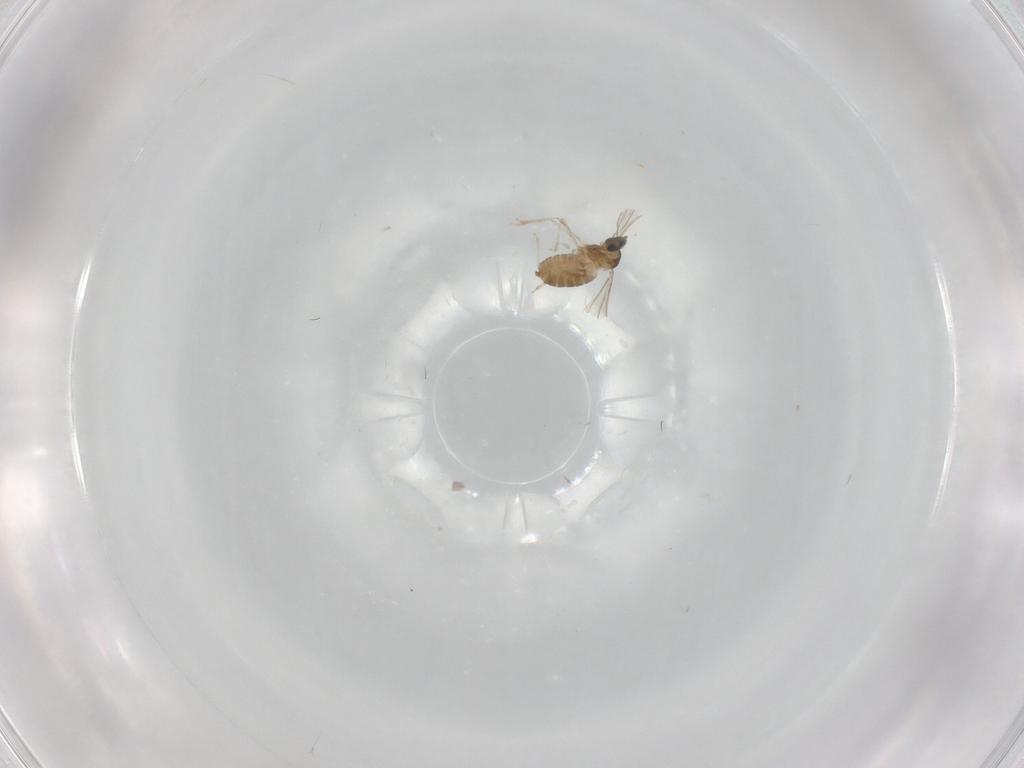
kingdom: Animalia
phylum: Arthropoda
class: Insecta
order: Diptera
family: Cecidomyiidae
